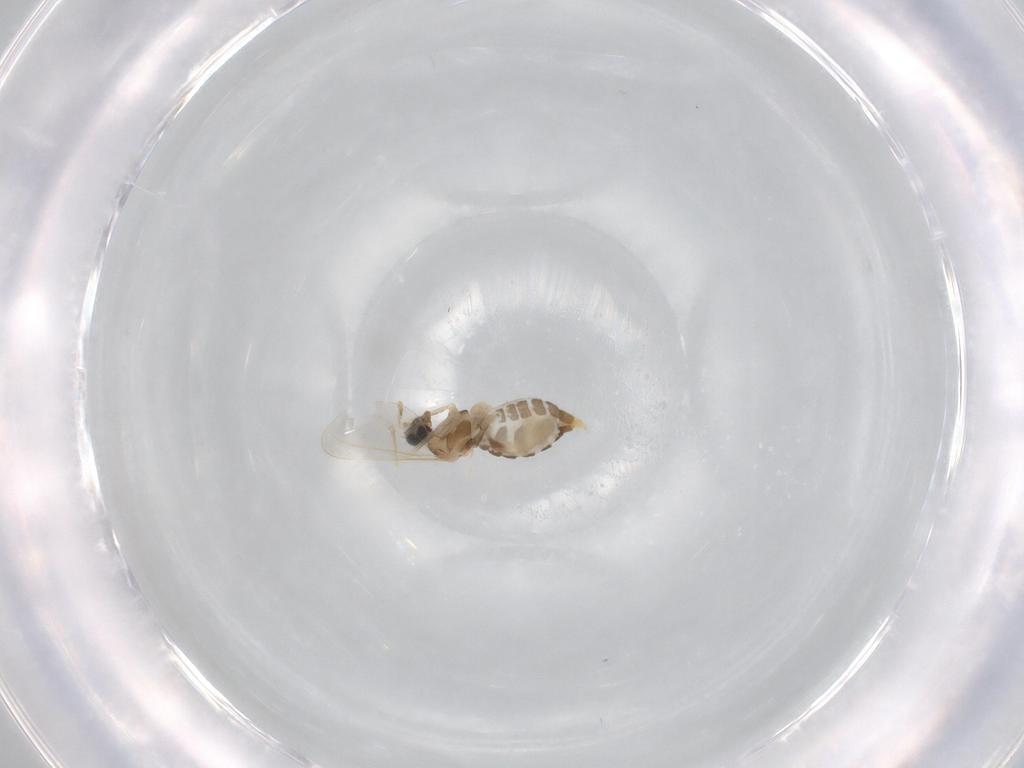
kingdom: Animalia
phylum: Arthropoda
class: Insecta
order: Diptera
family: Cecidomyiidae
